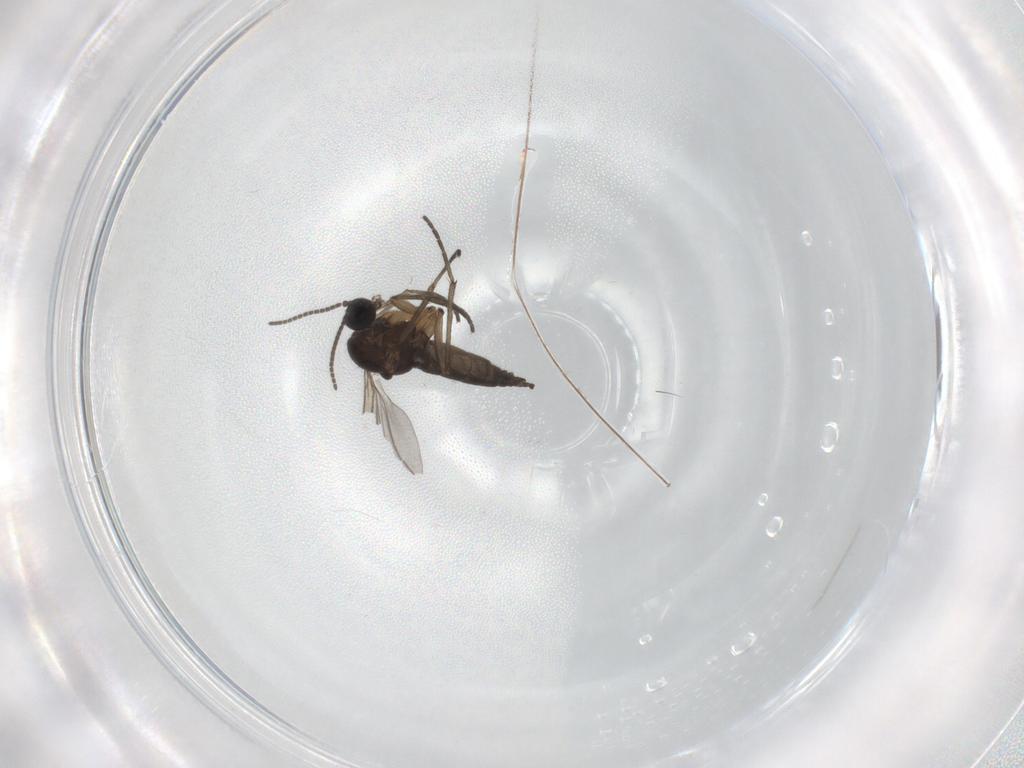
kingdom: Animalia
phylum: Arthropoda
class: Insecta
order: Diptera
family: Sciaridae
